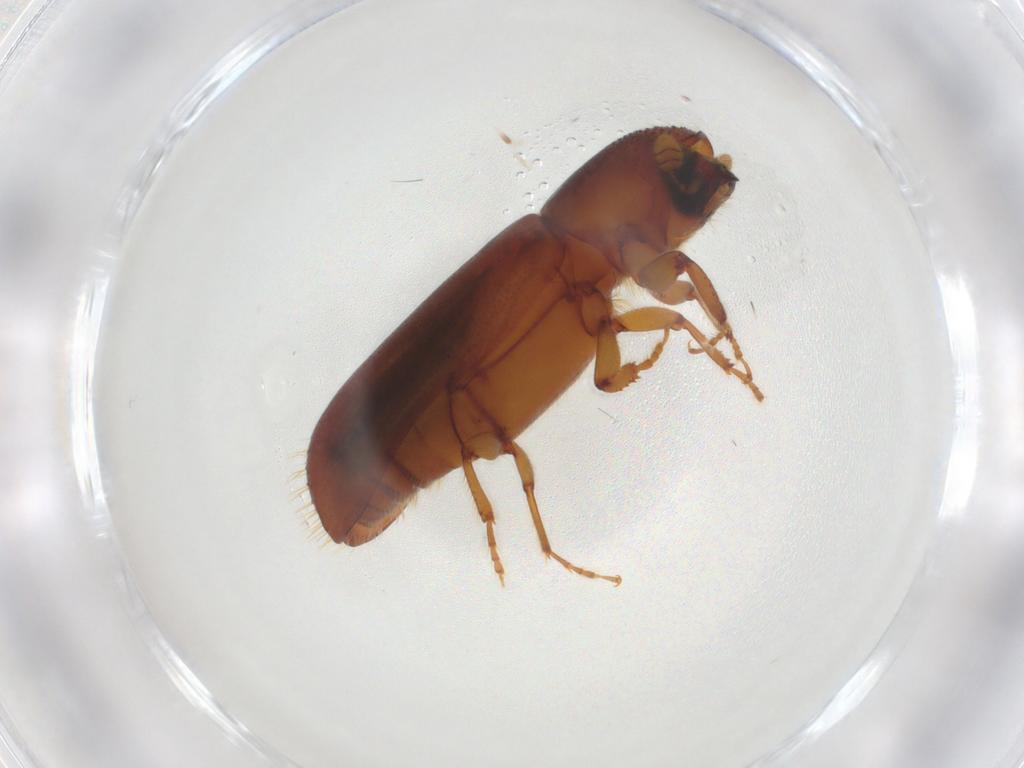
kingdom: Animalia
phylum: Arthropoda
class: Insecta
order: Coleoptera
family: Curculionidae
